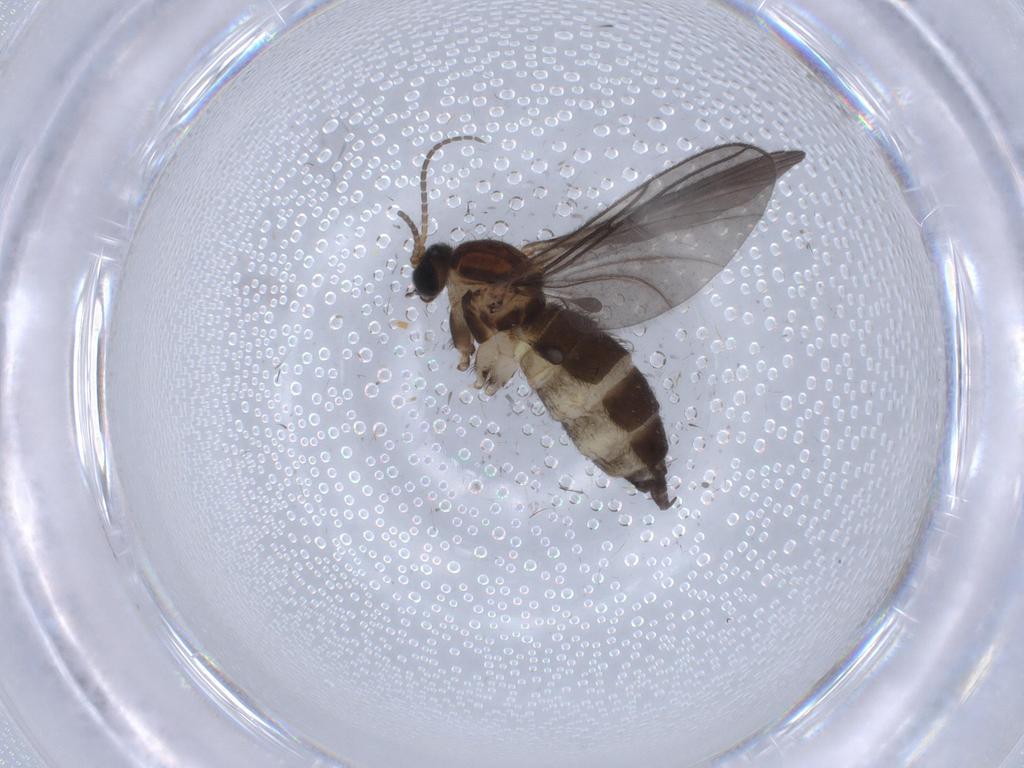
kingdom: Animalia
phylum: Arthropoda
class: Insecta
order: Diptera
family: Sciaridae
